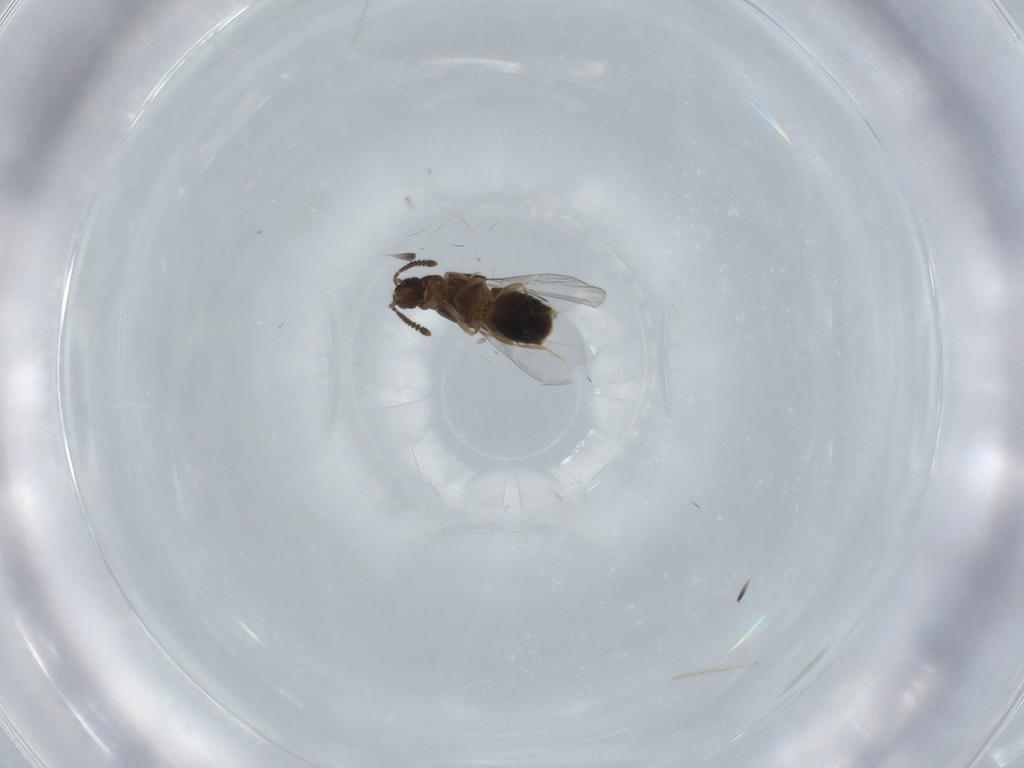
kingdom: Animalia
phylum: Arthropoda
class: Insecta
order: Coleoptera
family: Staphylinidae
